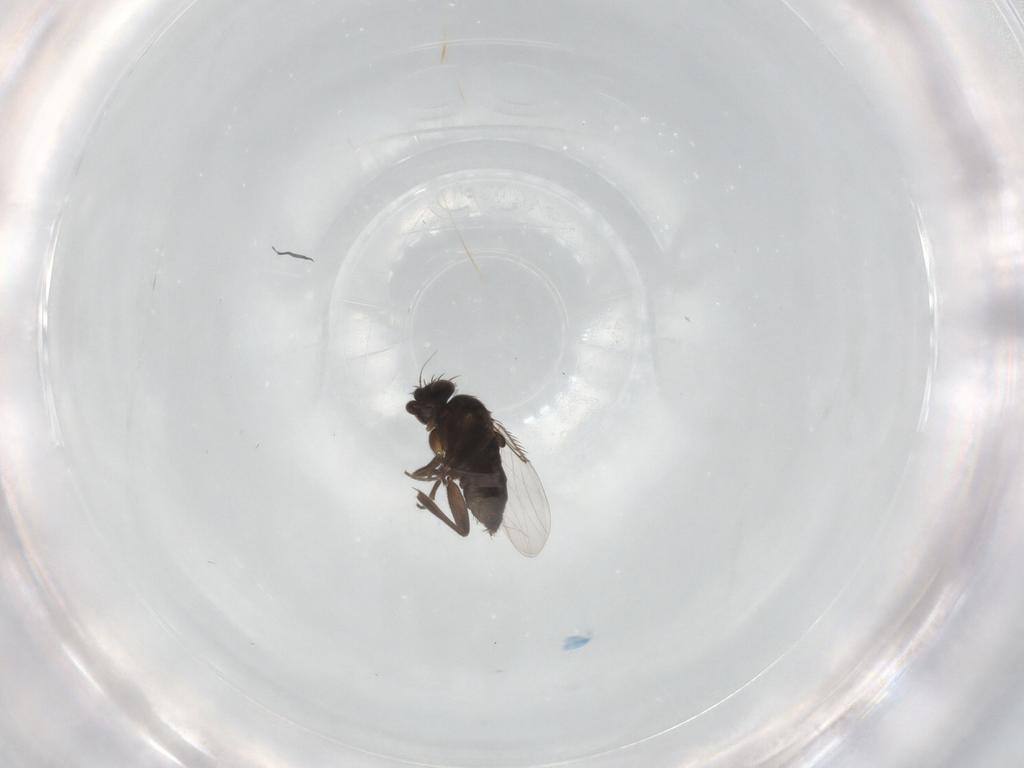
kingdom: Animalia
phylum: Arthropoda
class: Insecta
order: Diptera
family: Phoridae
